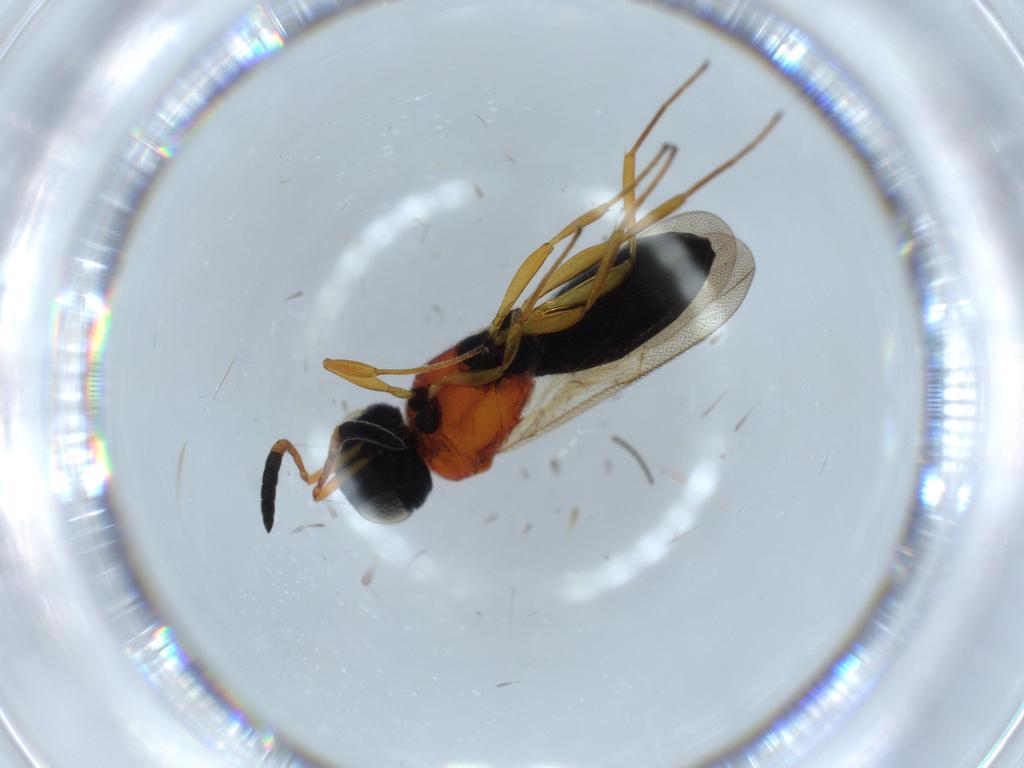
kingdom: Animalia
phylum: Arthropoda
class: Insecta
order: Hymenoptera
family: Scelionidae
